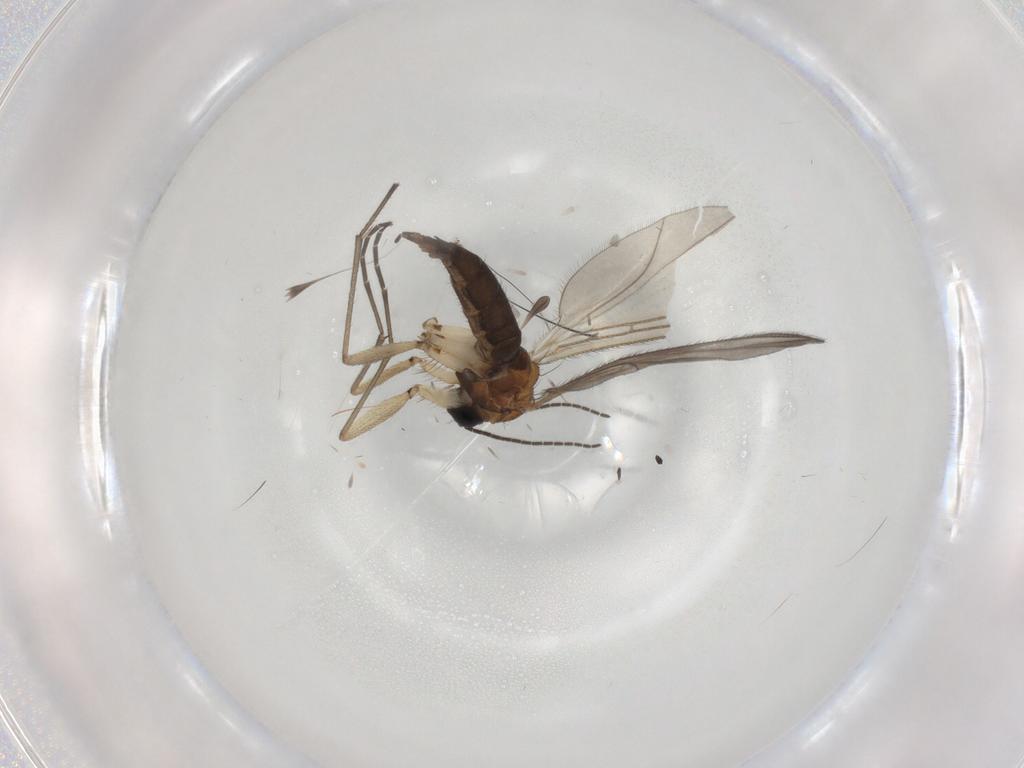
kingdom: Animalia
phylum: Arthropoda
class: Insecta
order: Diptera
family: Sciaridae
